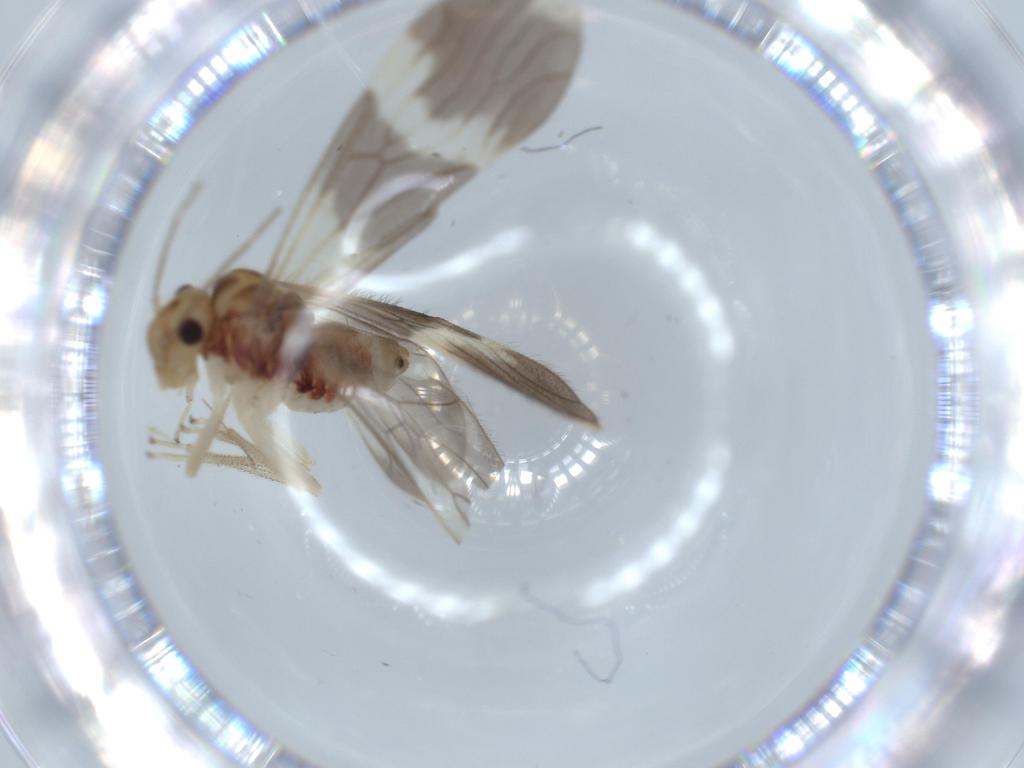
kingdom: Animalia
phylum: Arthropoda
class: Insecta
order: Psocodea
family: Amphipsocidae
